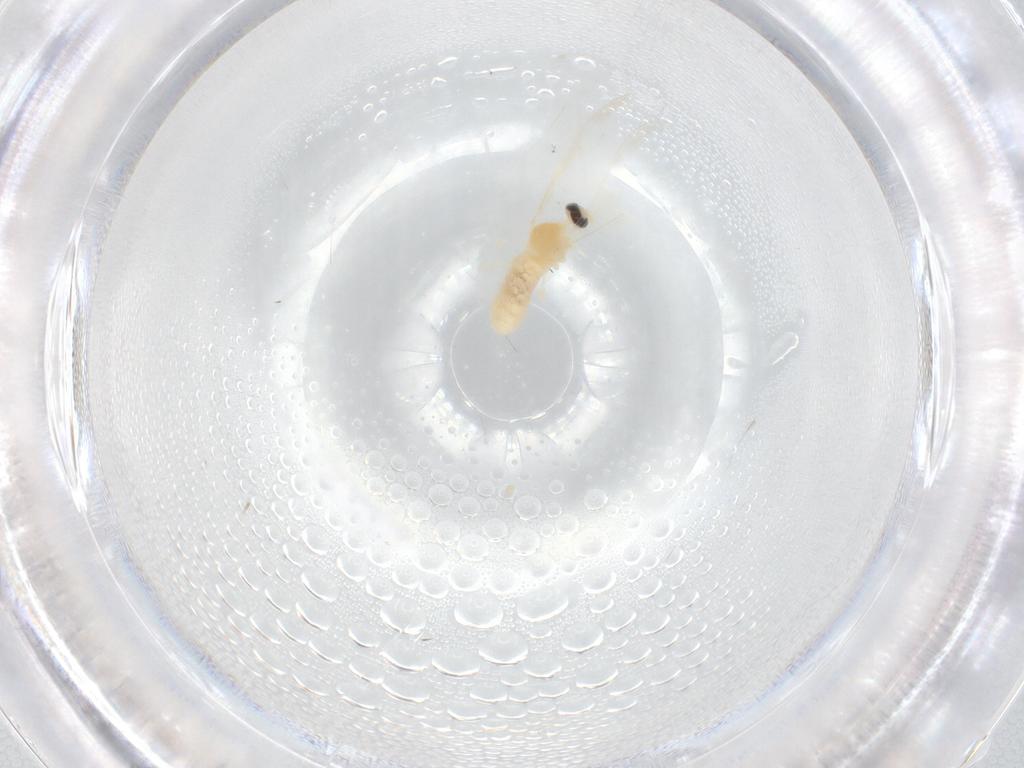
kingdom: Animalia
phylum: Arthropoda
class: Insecta
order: Diptera
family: Cecidomyiidae
